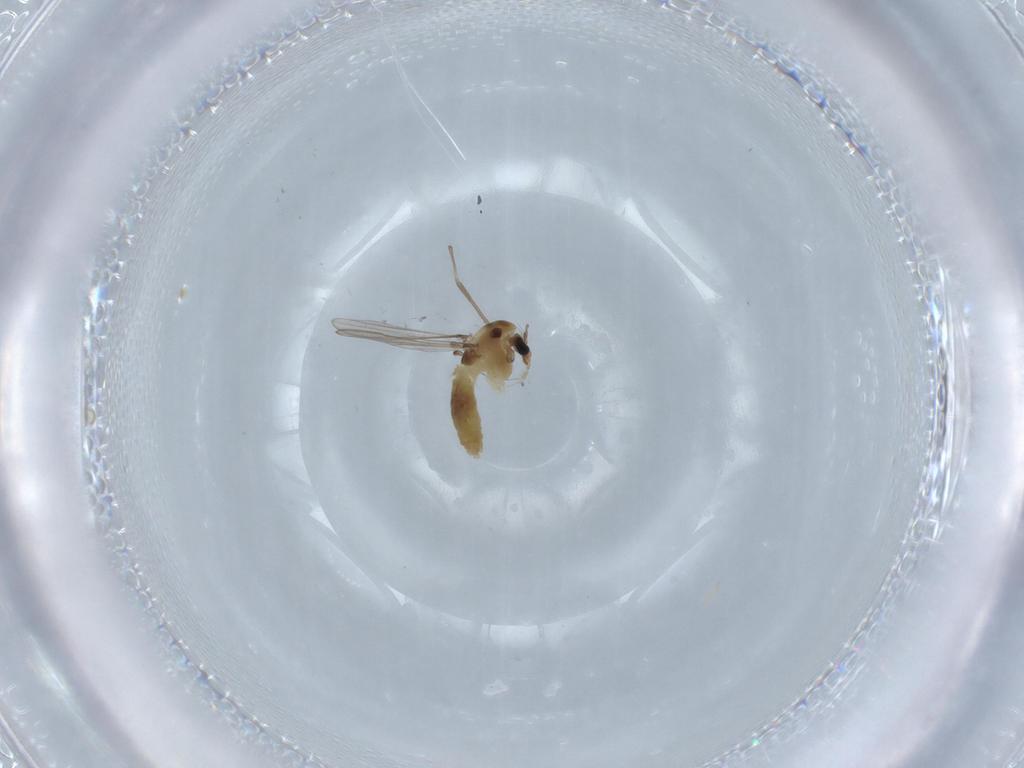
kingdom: Animalia
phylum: Arthropoda
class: Insecta
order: Diptera
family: Chironomidae
